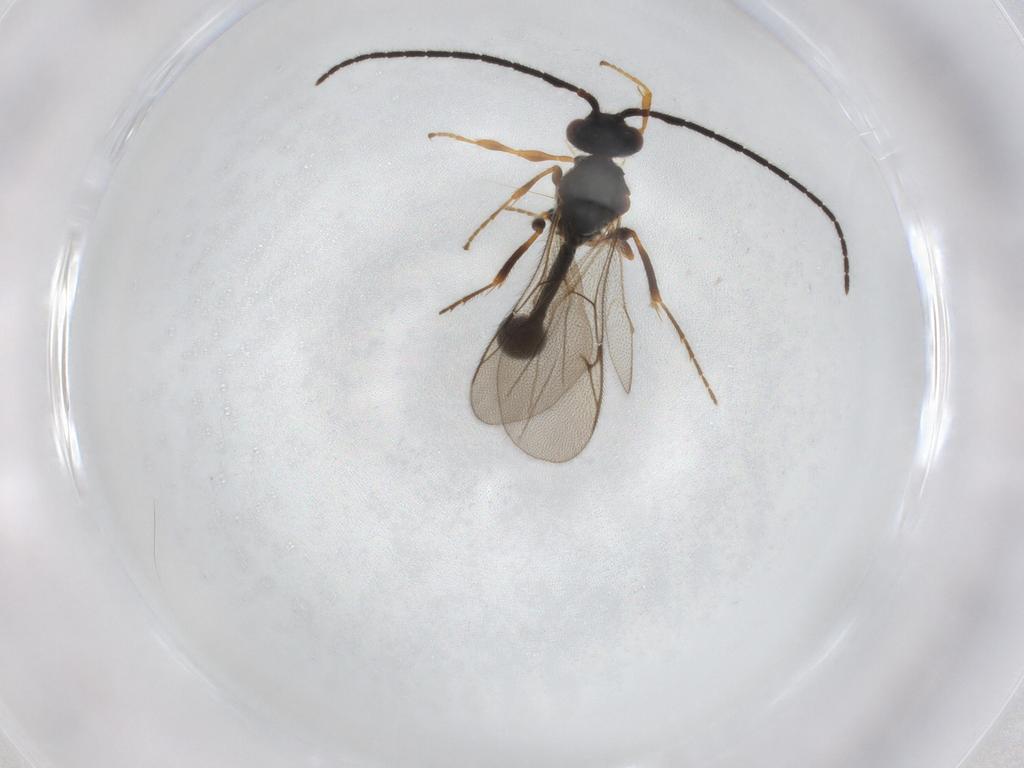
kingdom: Animalia
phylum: Arthropoda
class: Insecta
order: Hymenoptera
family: Diapriidae
